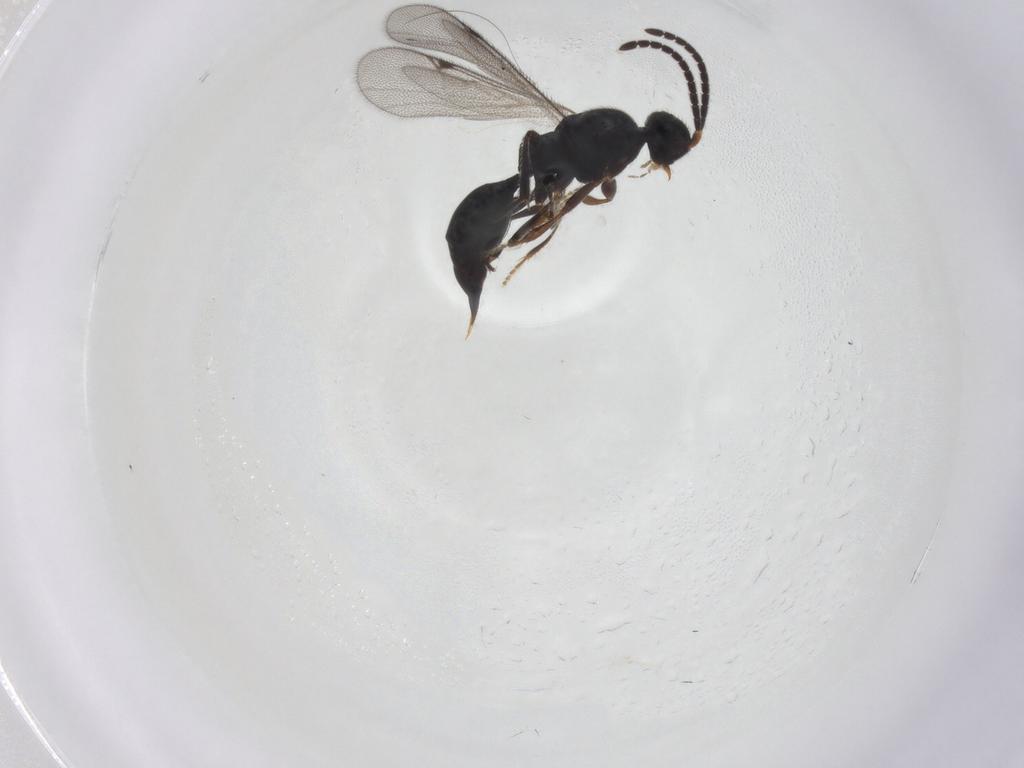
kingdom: Animalia
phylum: Arthropoda
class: Insecta
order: Hymenoptera
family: Proctotrupidae
